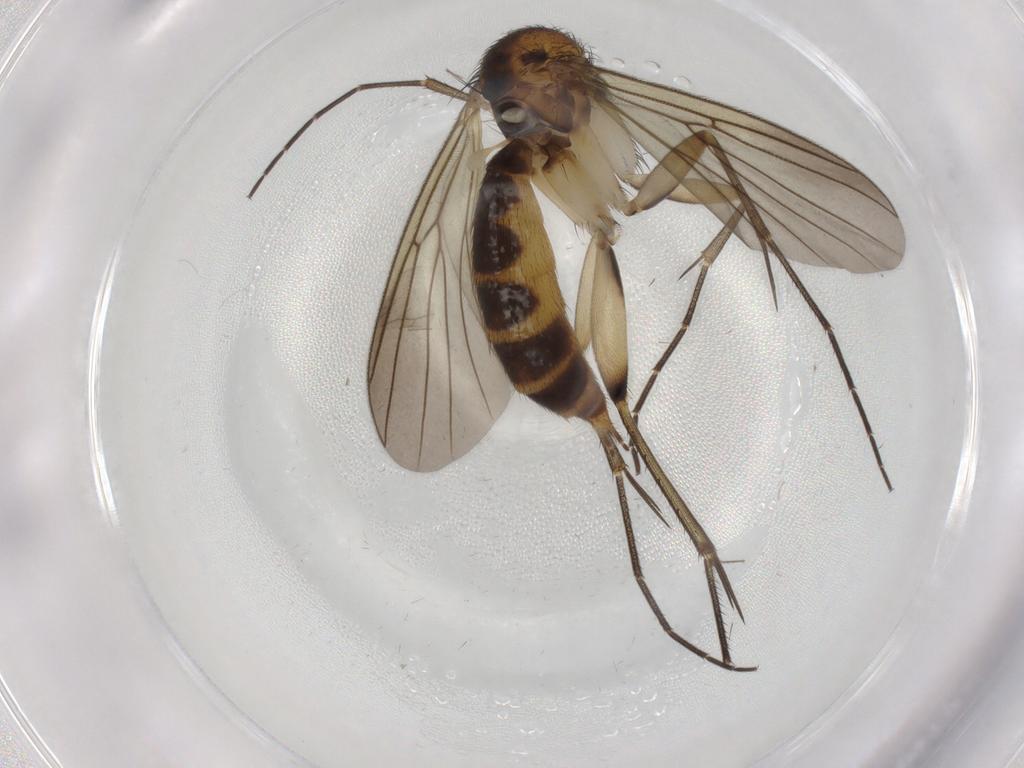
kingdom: Animalia
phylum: Arthropoda
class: Insecta
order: Diptera
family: Mycetophilidae
